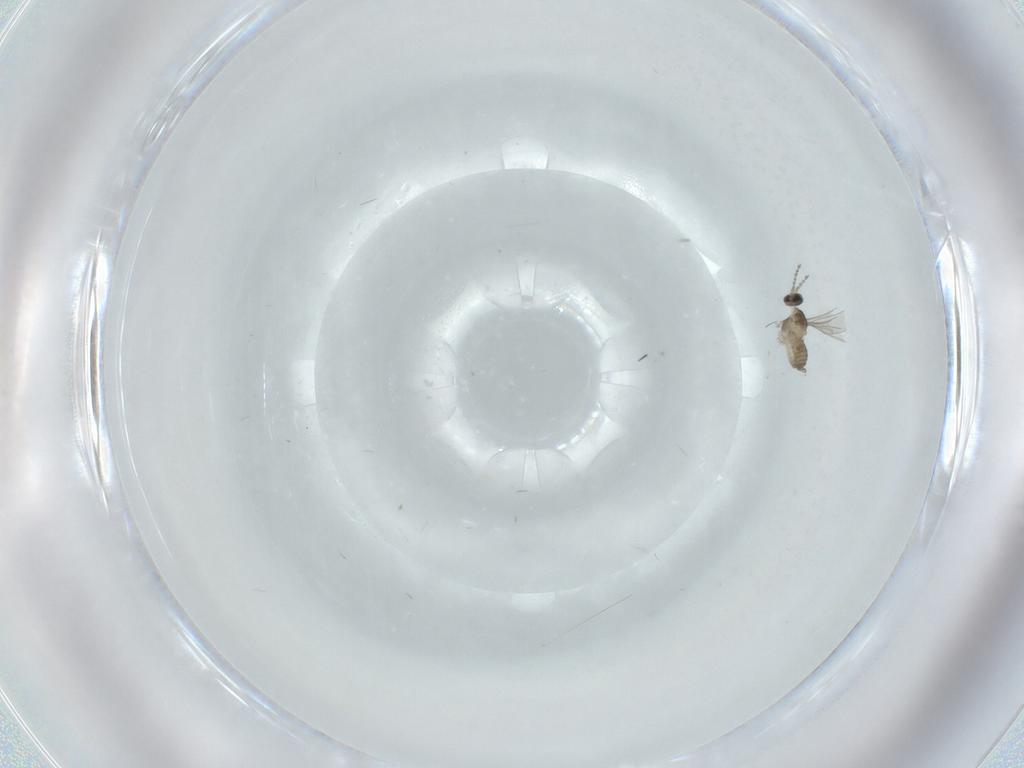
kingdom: Animalia
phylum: Arthropoda
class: Insecta
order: Diptera
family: Cecidomyiidae
